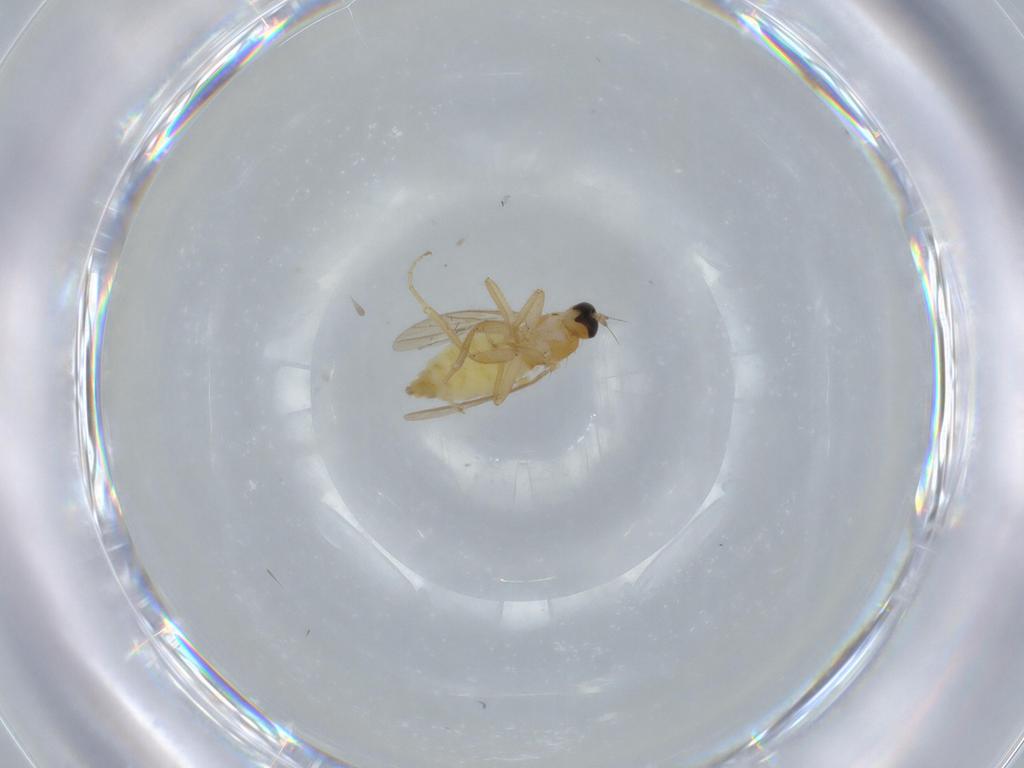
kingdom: Animalia
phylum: Arthropoda
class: Insecta
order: Diptera
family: Hybotidae
